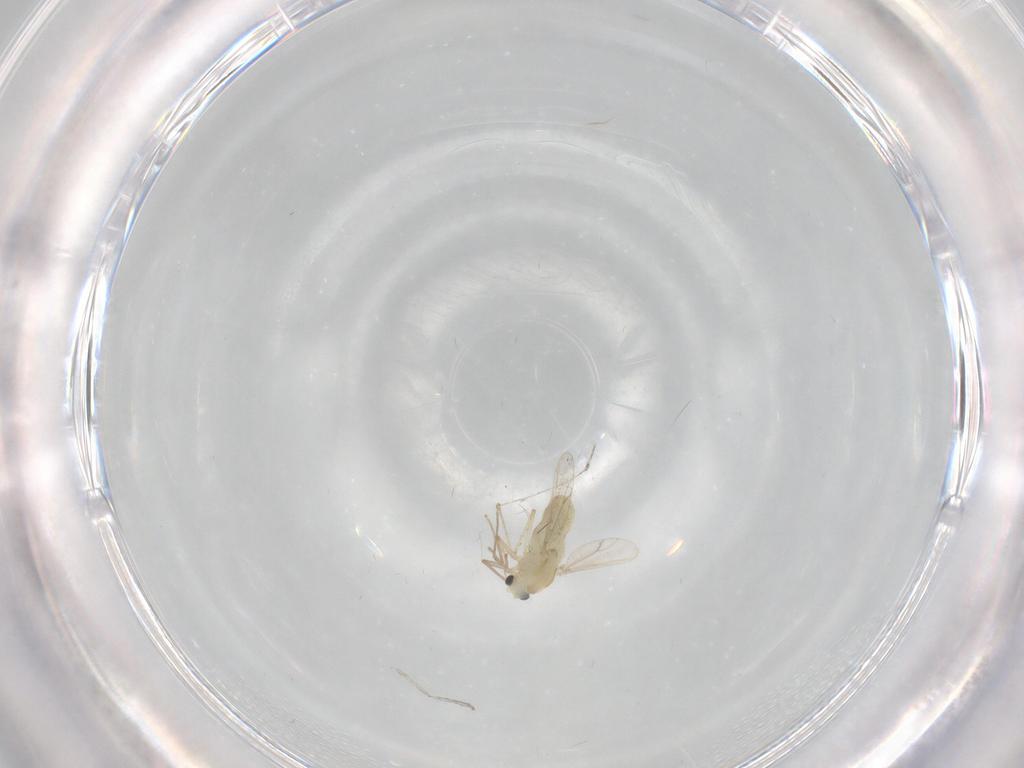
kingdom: Animalia
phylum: Arthropoda
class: Insecta
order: Diptera
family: Chironomidae
